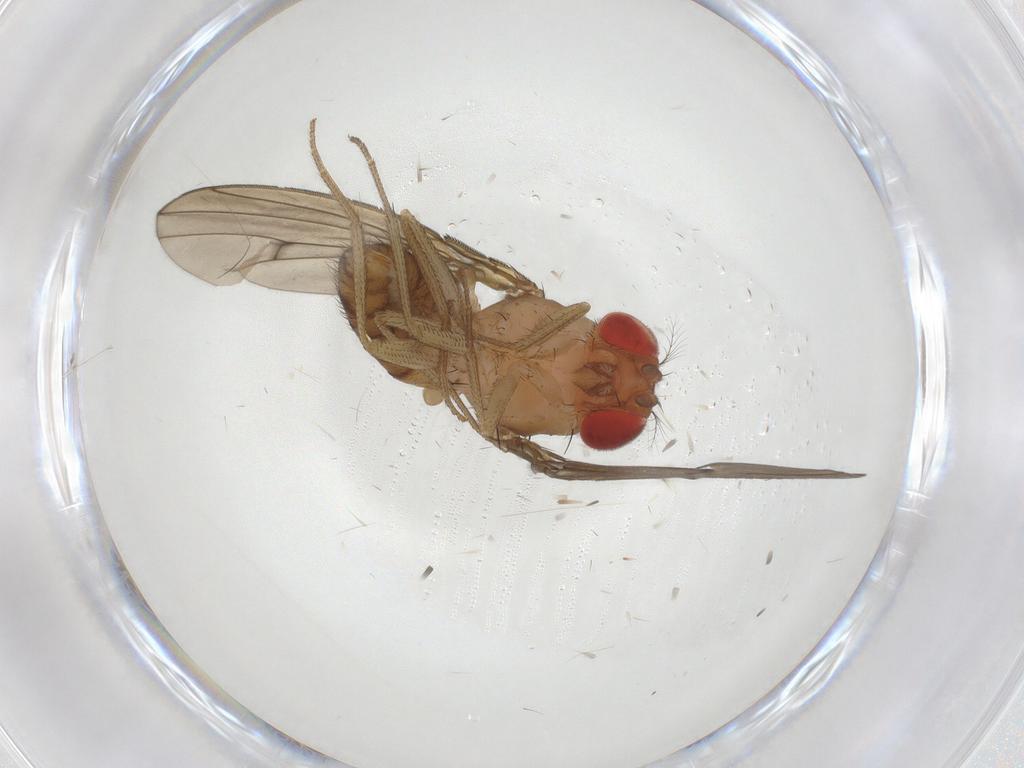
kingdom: Animalia
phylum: Arthropoda
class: Insecta
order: Diptera
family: Drosophilidae
